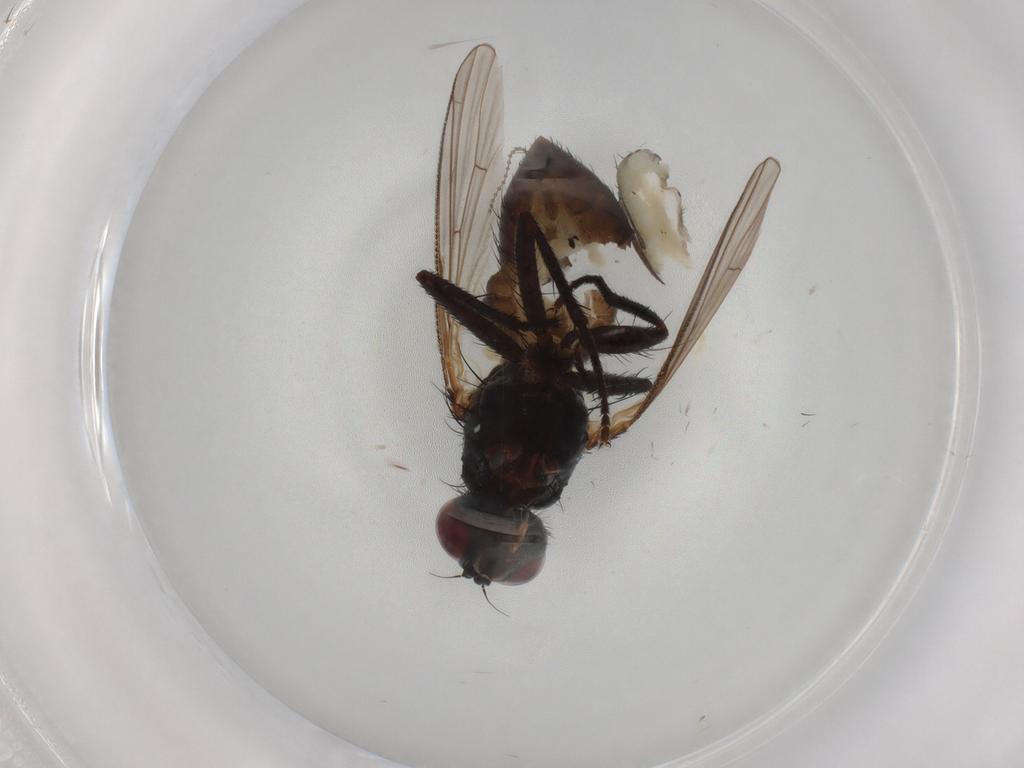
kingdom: Animalia
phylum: Arthropoda
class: Insecta
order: Diptera
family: Muscidae
